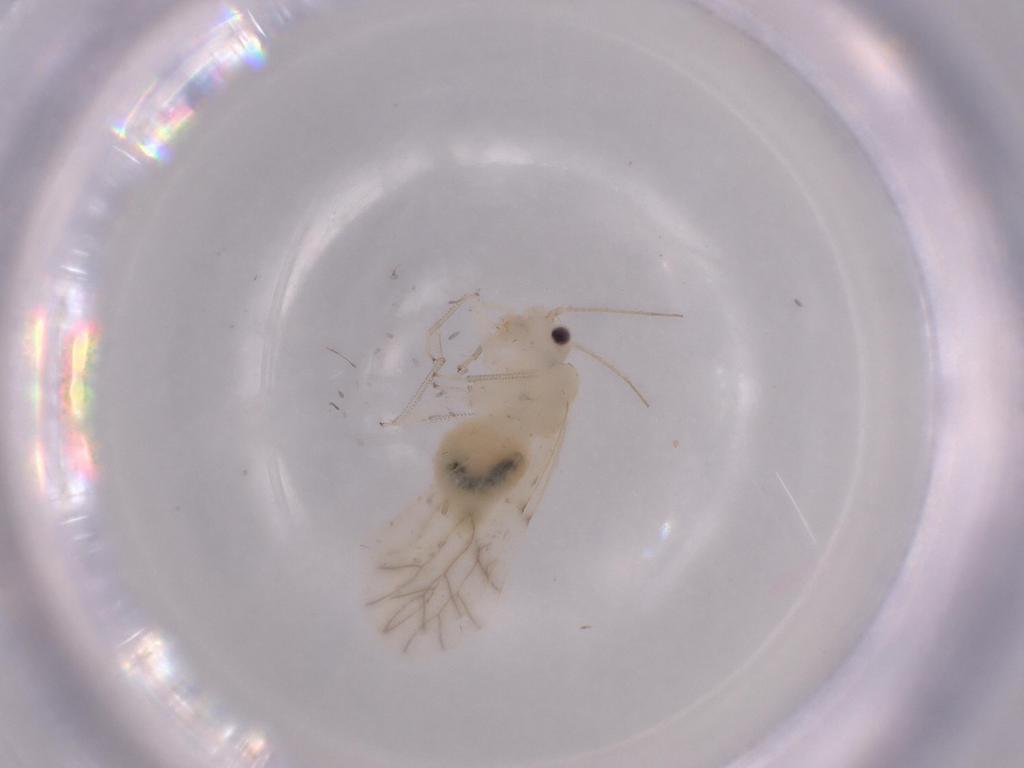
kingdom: Animalia
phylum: Arthropoda
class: Insecta
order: Psocodea
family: Caeciliusidae
